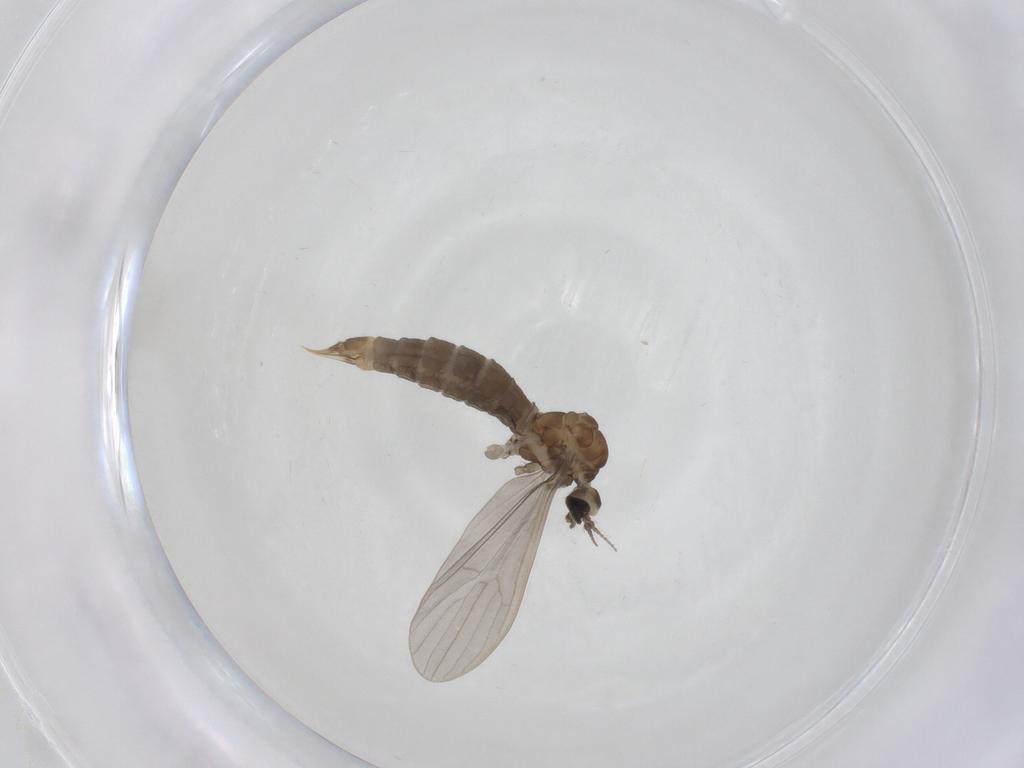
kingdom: Animalia
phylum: Arthropoda
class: Insecta
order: Diptera
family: Limoniidae
